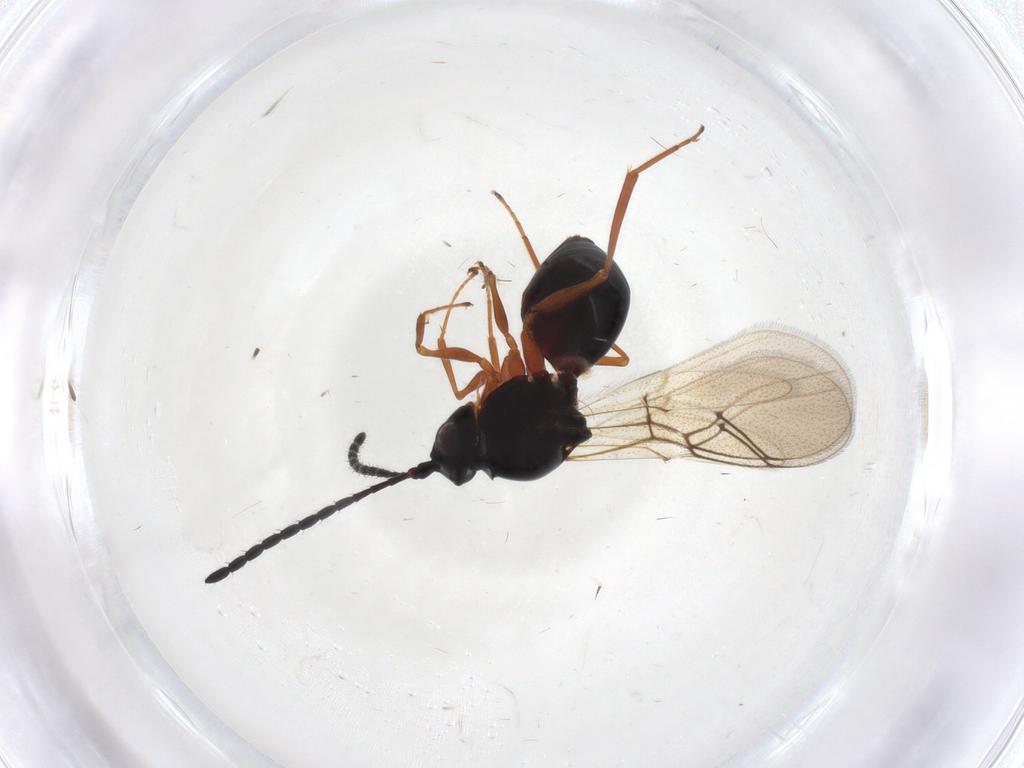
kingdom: Animalia
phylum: Arthropoda
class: Insecta
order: Hymenoptera
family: Figitidae
